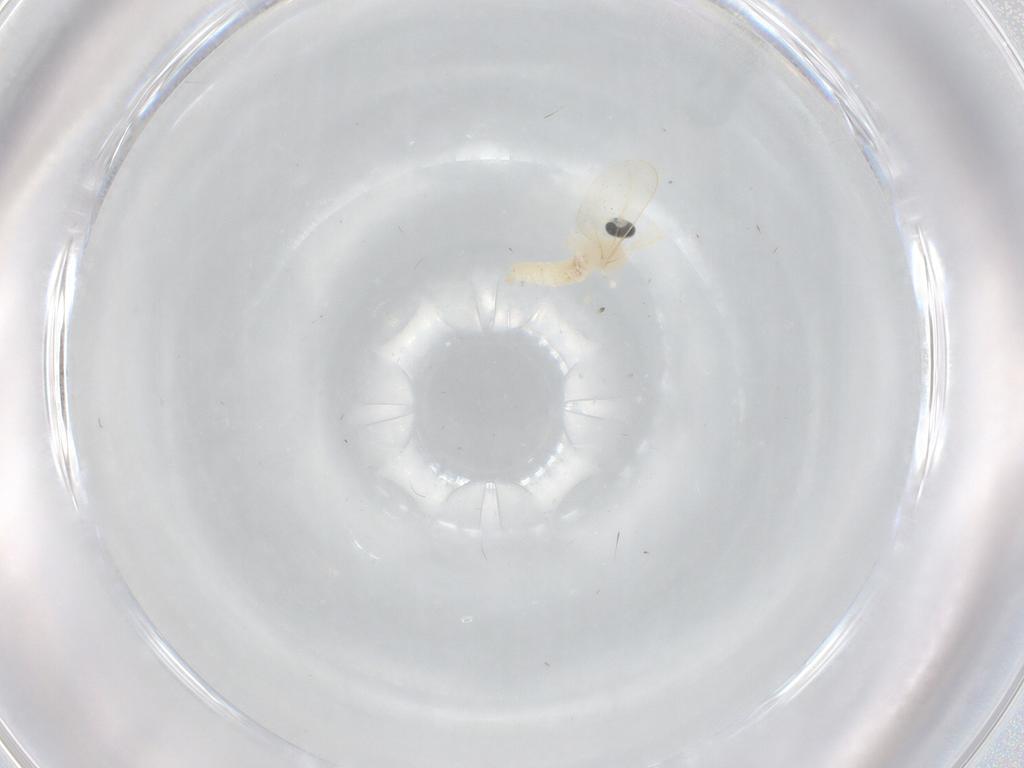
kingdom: Animalia
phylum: Arthropoda
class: Insecta
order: Diptera
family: Cecidomyiidae
